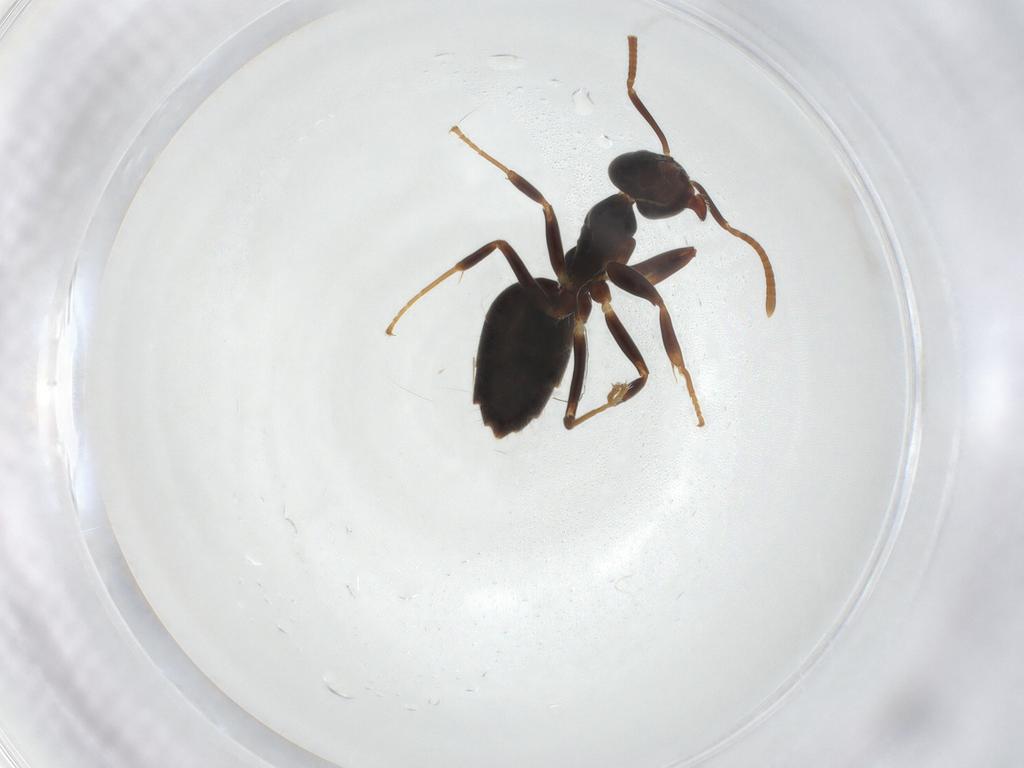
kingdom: Animalia
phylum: Arthropoda
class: Insecta
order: Hymenoptera
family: Formicidae
